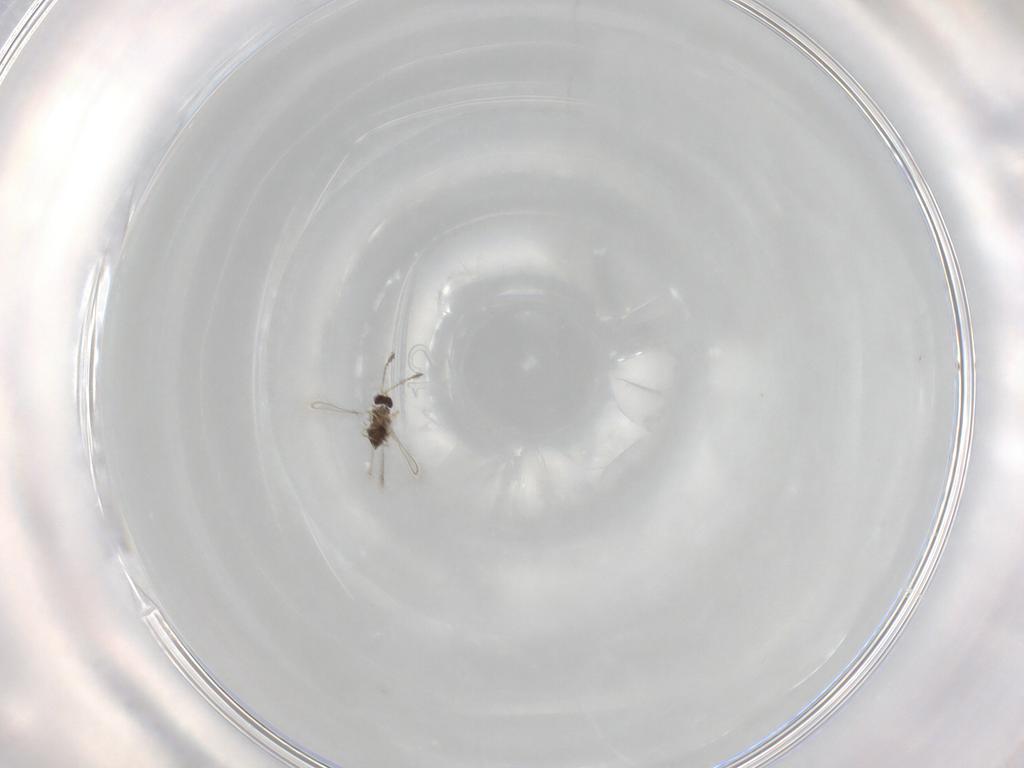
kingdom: Animalia
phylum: Arthropoda
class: Insecta
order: Hymenoptera
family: Mymaridae
